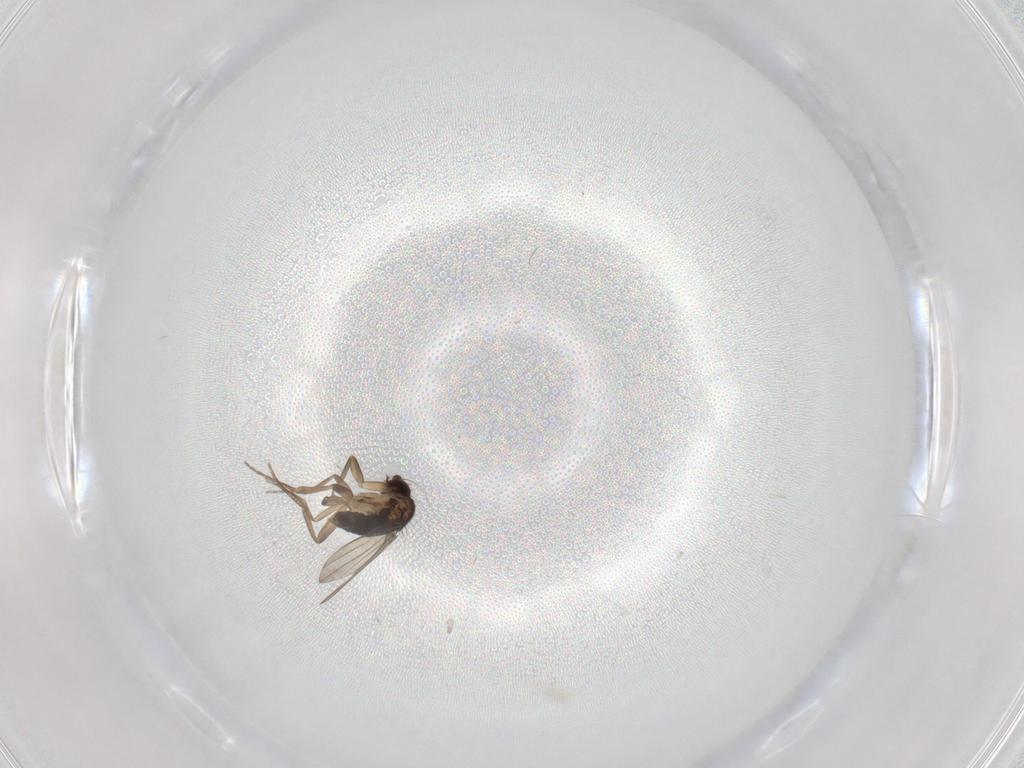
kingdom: Animalia
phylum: Arthropoda
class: Insecta
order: Diptera
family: Phoridae
